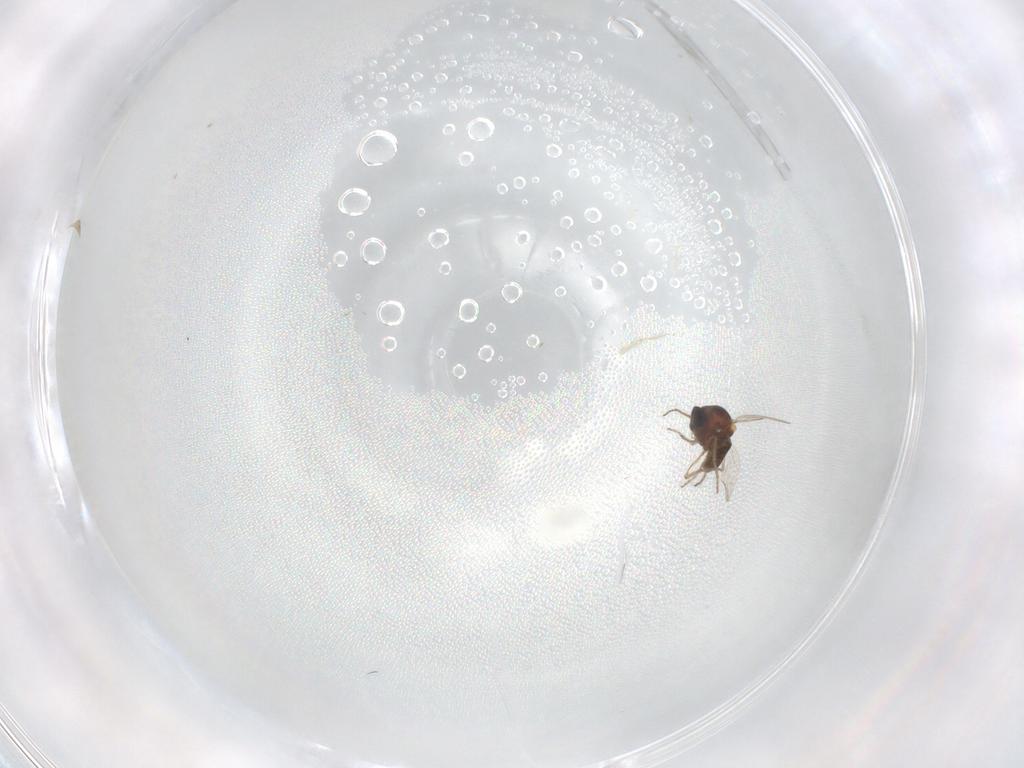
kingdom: Animalia
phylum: Arthropoda
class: Insecta
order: Diptera
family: Ceratopogonidae
